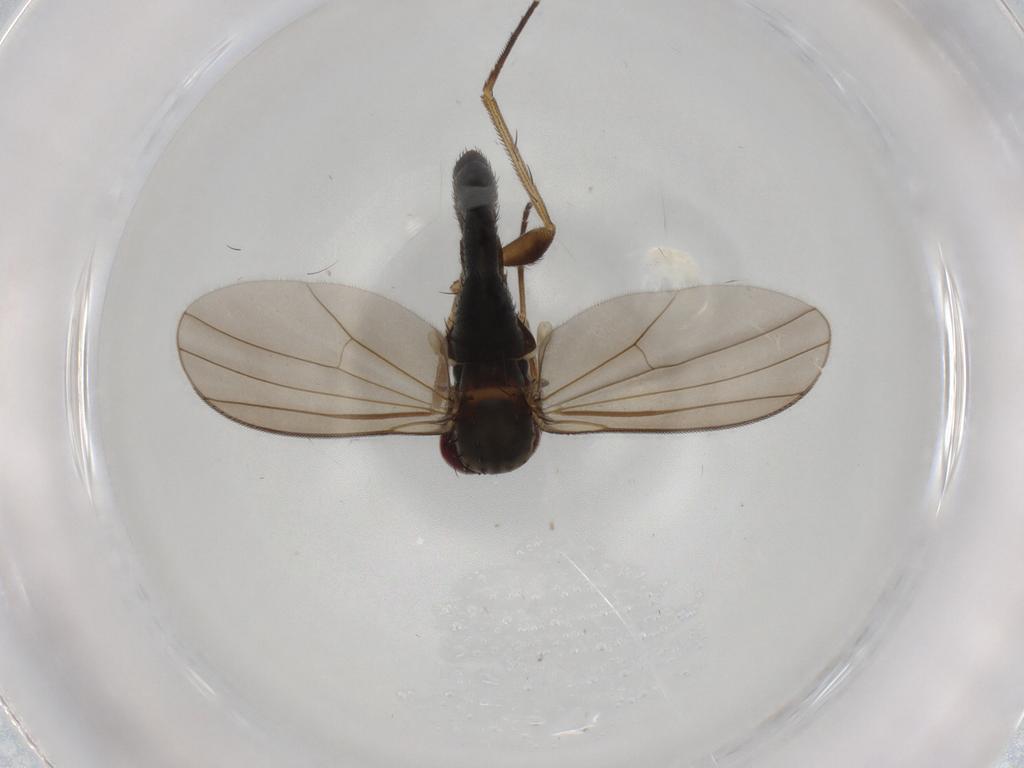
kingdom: Animalia
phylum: Arthropoda
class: Insecta
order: Diptera
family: Dolichopodidae
